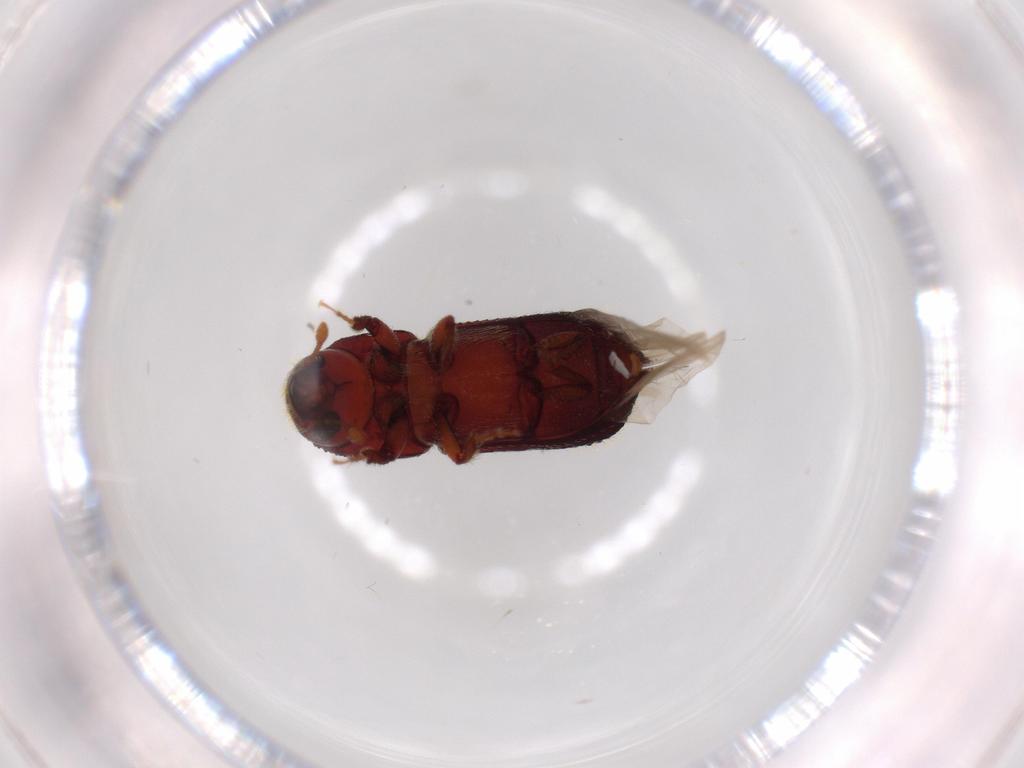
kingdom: Animalia
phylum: Arthropoda
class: Insecta
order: Coleoptera
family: Curculionidae
